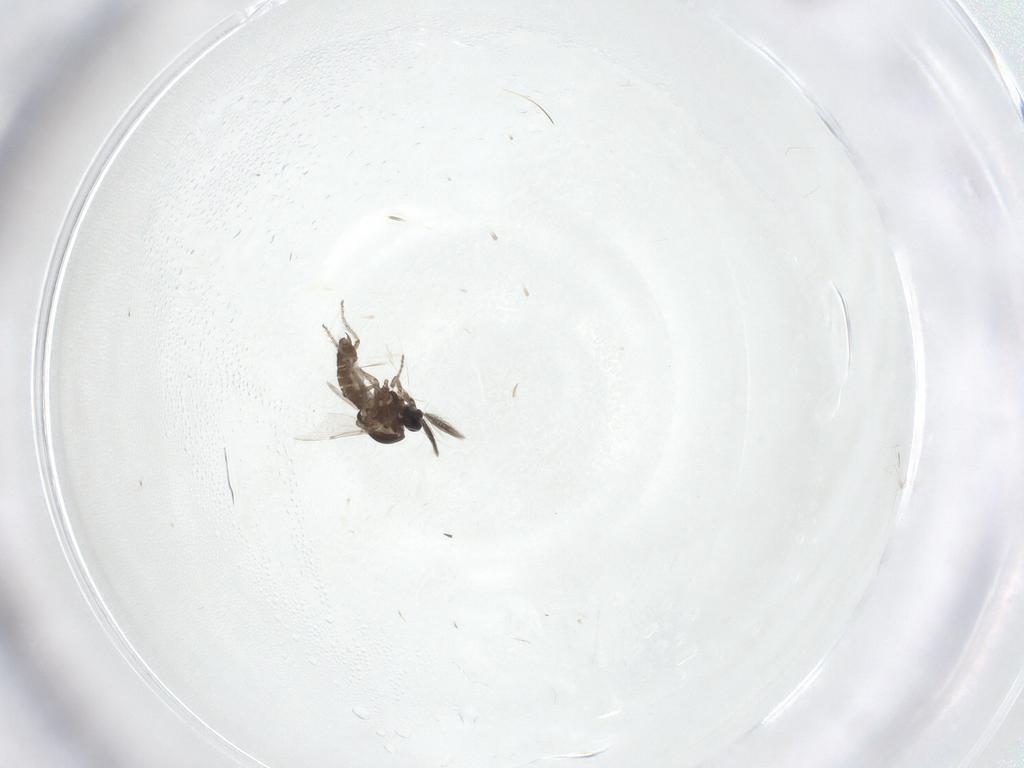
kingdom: Animalia
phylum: Arthropoda
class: Insecta
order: Diptera
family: Ceratopogonidae
